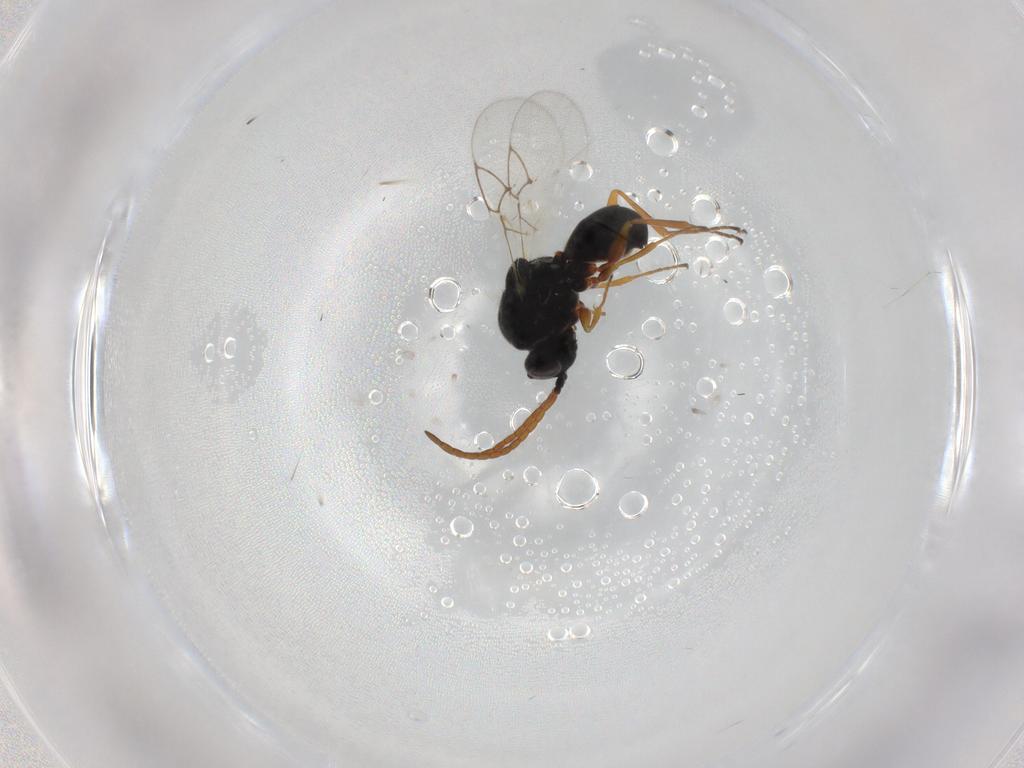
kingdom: Animalia
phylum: Arthropoda
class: Insecta
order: Hymenoptera
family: Figitidae
